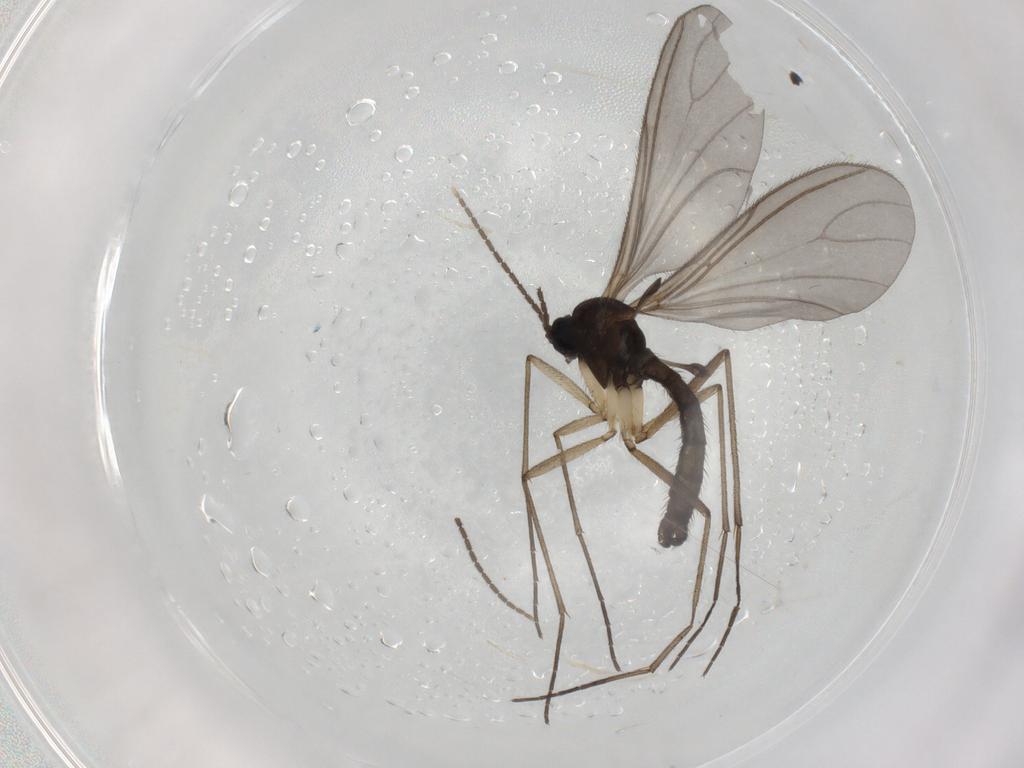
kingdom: Animalia
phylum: Arthropoda
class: Insecta
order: Diptera
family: Sciaridae
